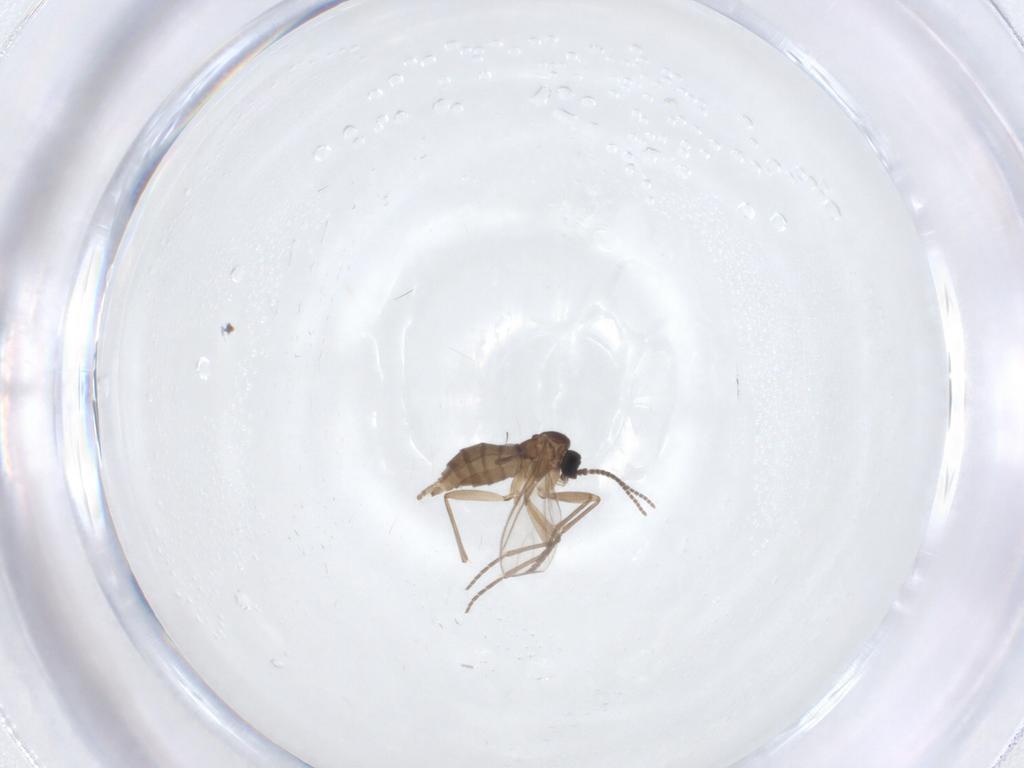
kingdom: Animalia
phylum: Arthropoda
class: Insecta
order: Diptera
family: Sciaridae
